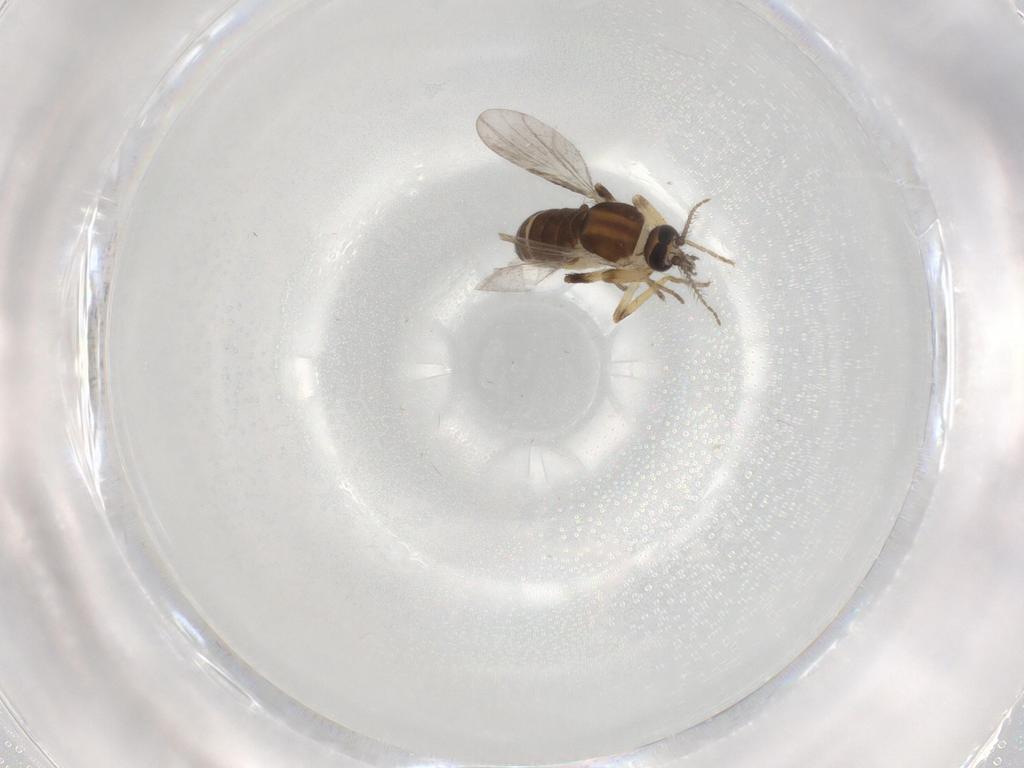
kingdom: Animalia
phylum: Arthropoda
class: Insecta
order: Diptera
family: Ceratopogonidae
